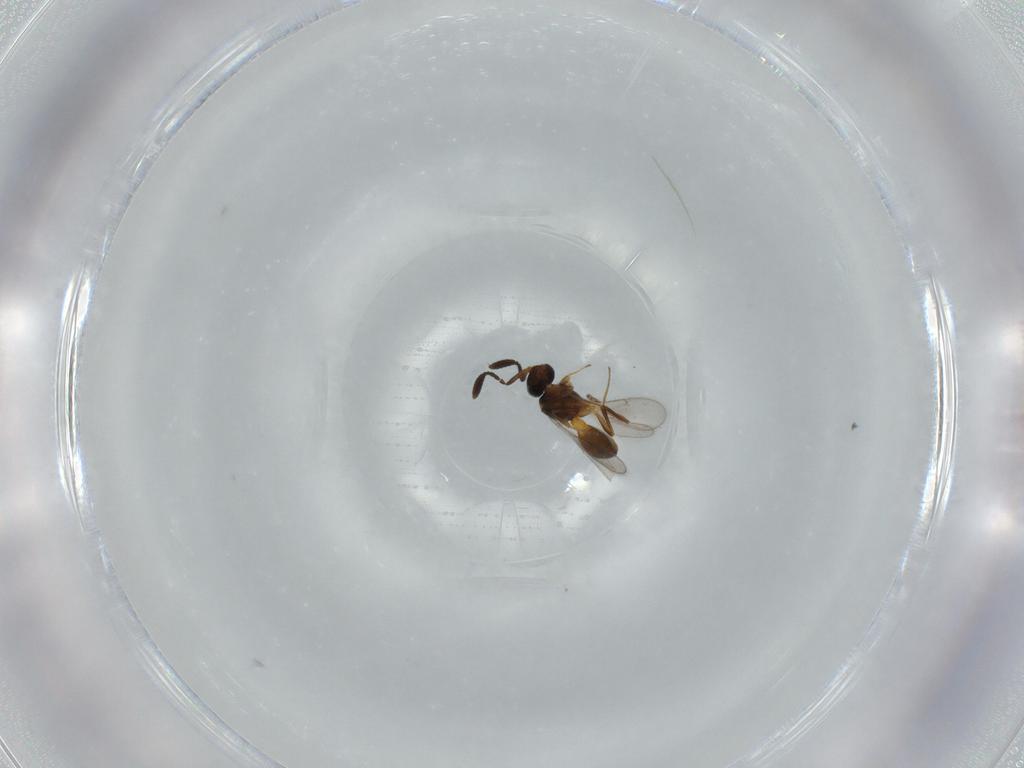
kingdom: Animalia
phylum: Arthropoda
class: Insecta
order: Hymenoptera
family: Scelionidae
